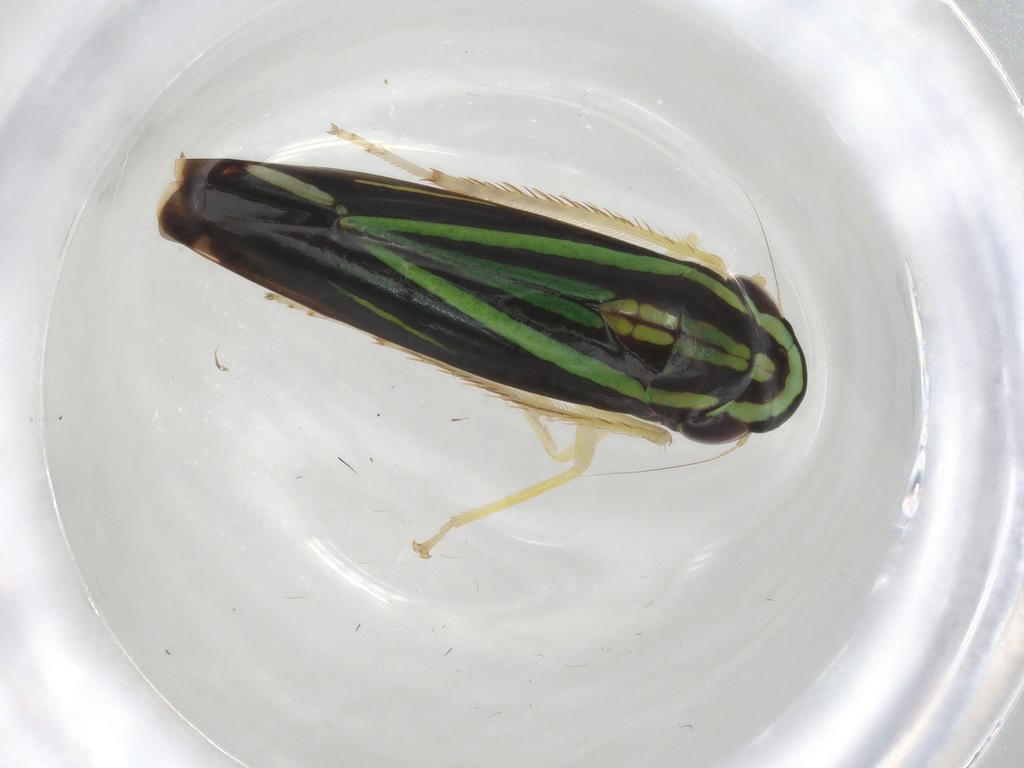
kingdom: Animalia
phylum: Arthropoda
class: Insecta
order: Hemiptera
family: Cicadellidae
